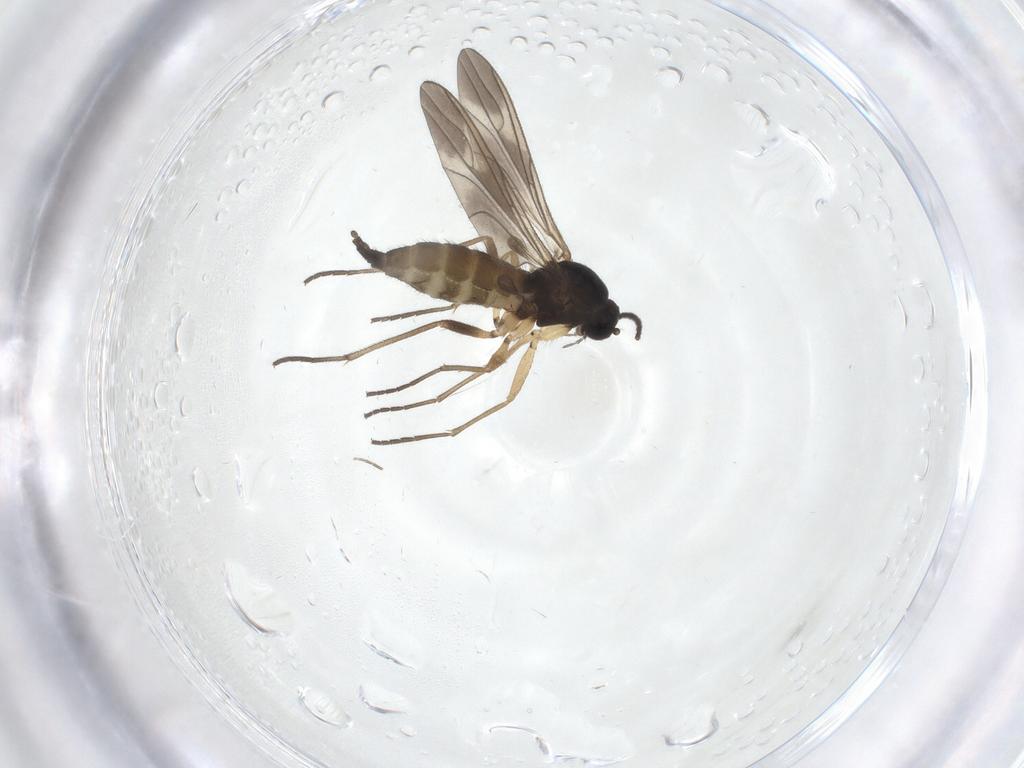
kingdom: Animalia
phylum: Arthropoda
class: Insecta
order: Diptera
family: Sciaridae
